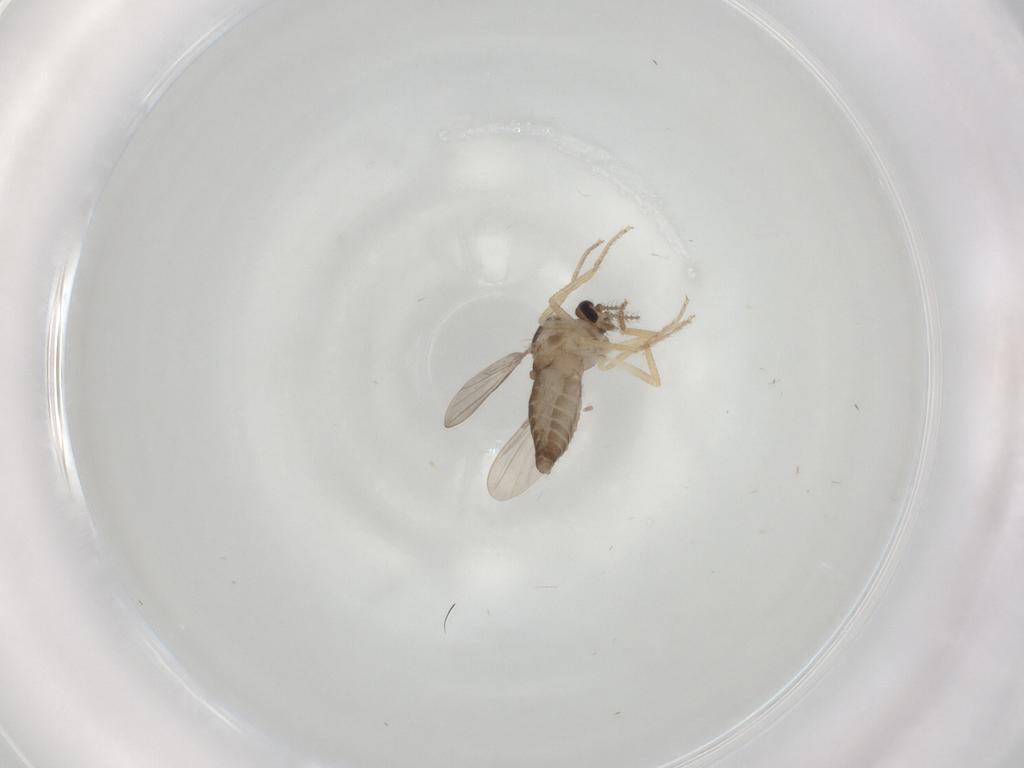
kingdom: Animalia
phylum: Arthropoda
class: Insecta
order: Diptera
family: Ceratopogonidae
